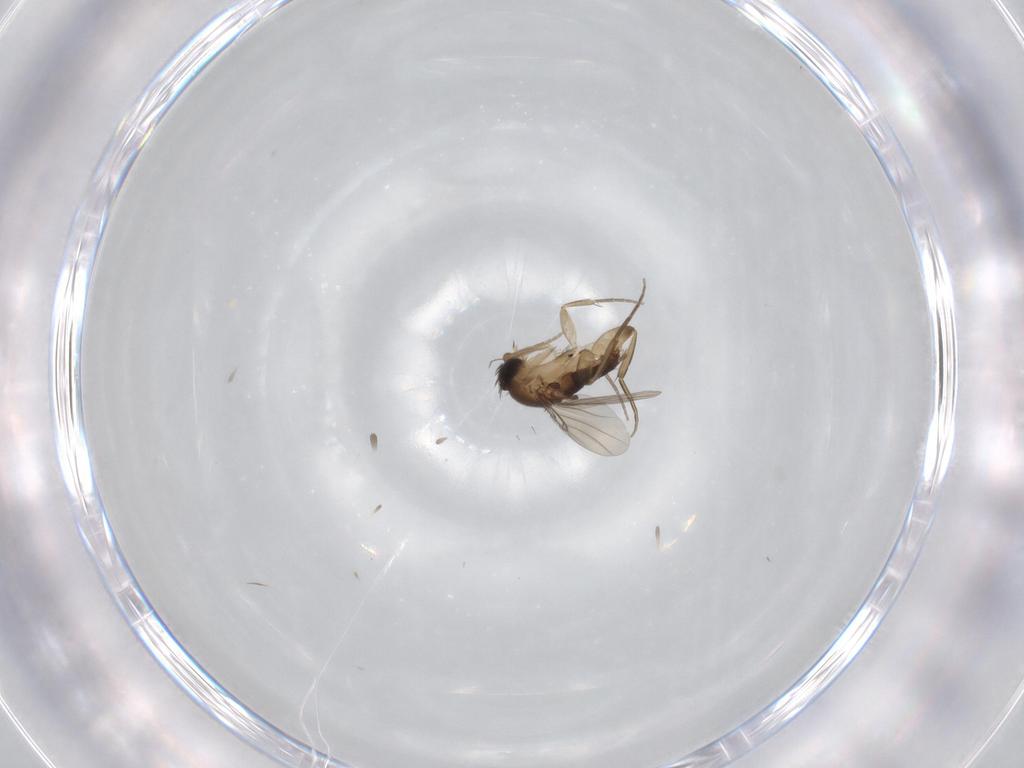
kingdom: Animalia
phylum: Arthropoda
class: Insecta
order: Diptera
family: Phoridae
